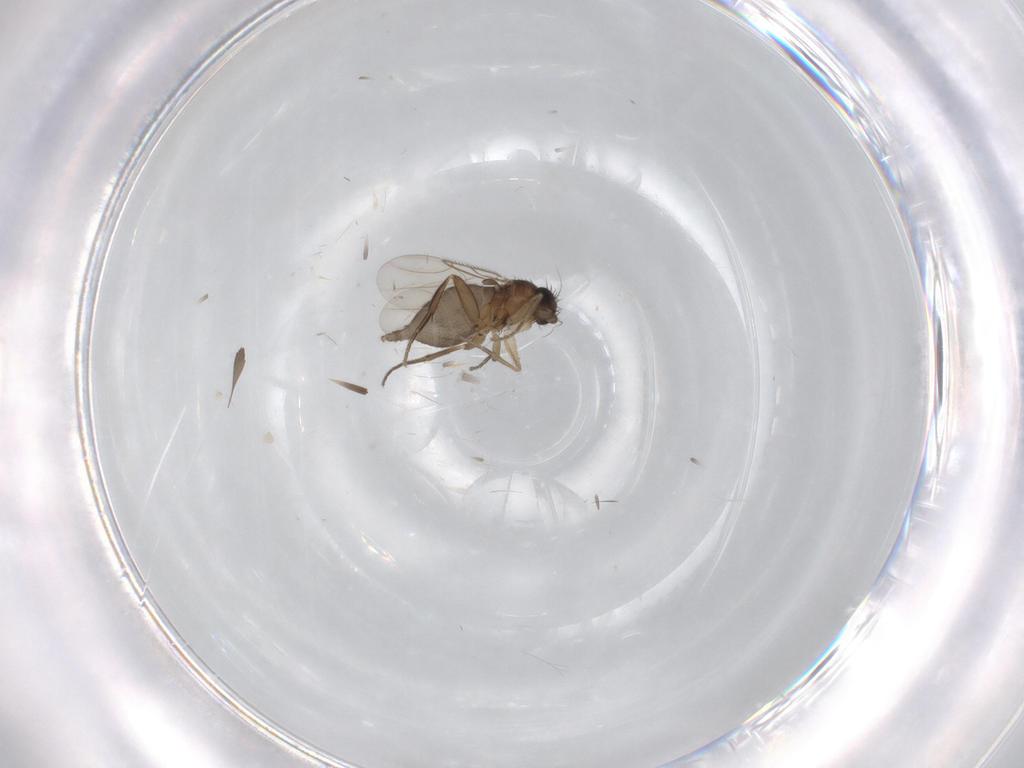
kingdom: Animalia
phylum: Arthropoda
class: Insecta
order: Diptera
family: Phoridae
